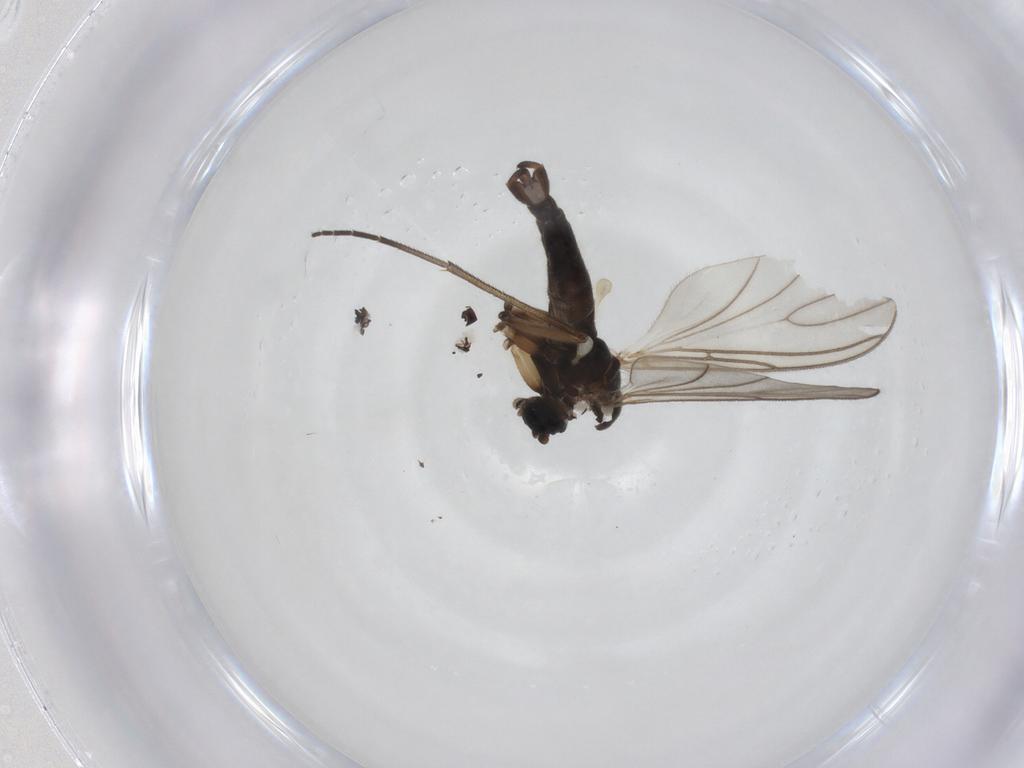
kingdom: Animalia
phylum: Arthropoda
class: Insecta
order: Diptera
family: Sciaridae
